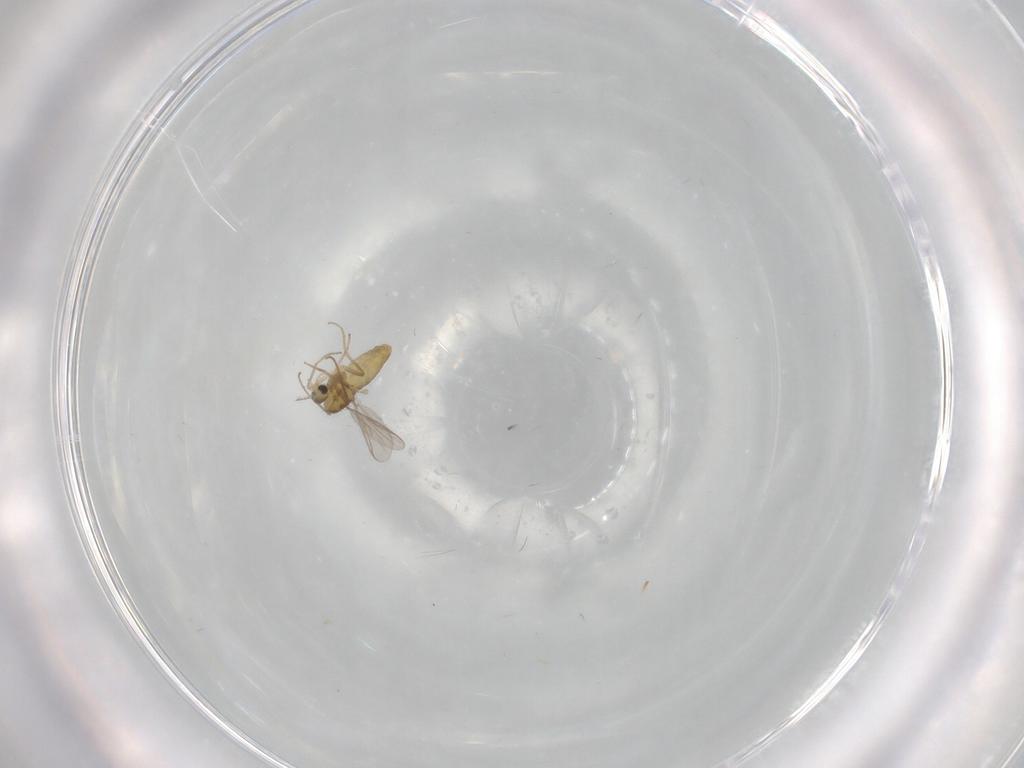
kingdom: Animalia
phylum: Arthropoda
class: Insecta
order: Diptera
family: Chironomidae
